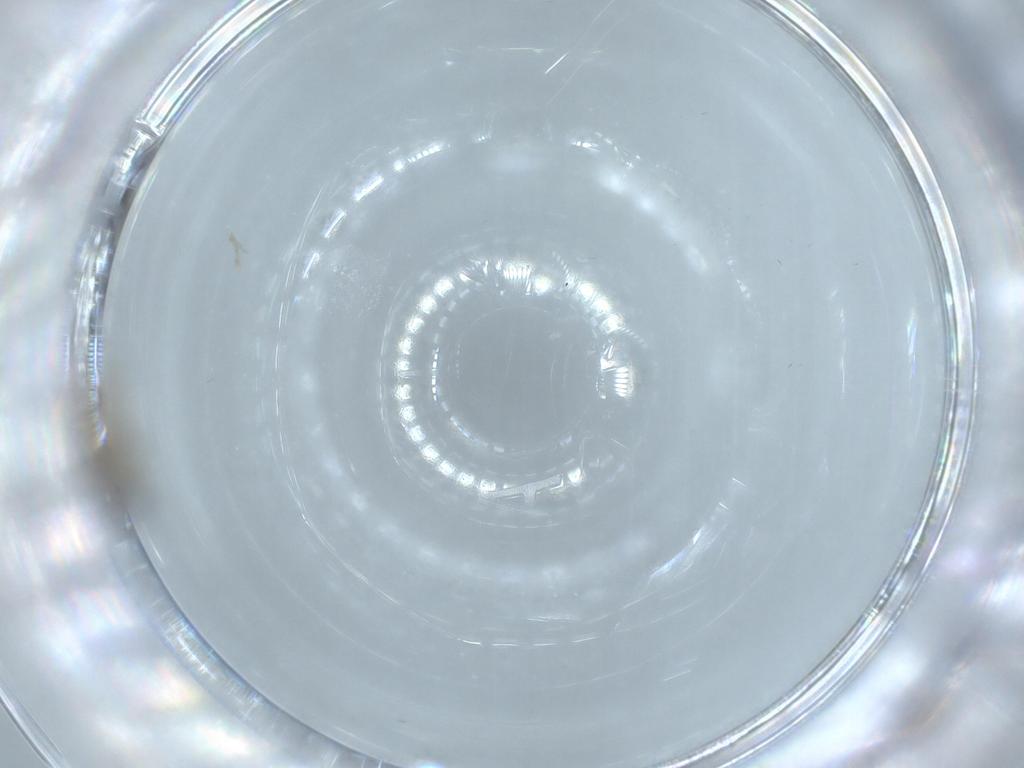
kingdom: Animalia
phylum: Arthropoda
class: Insecta
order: Diptera
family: Cecidomyiidae
